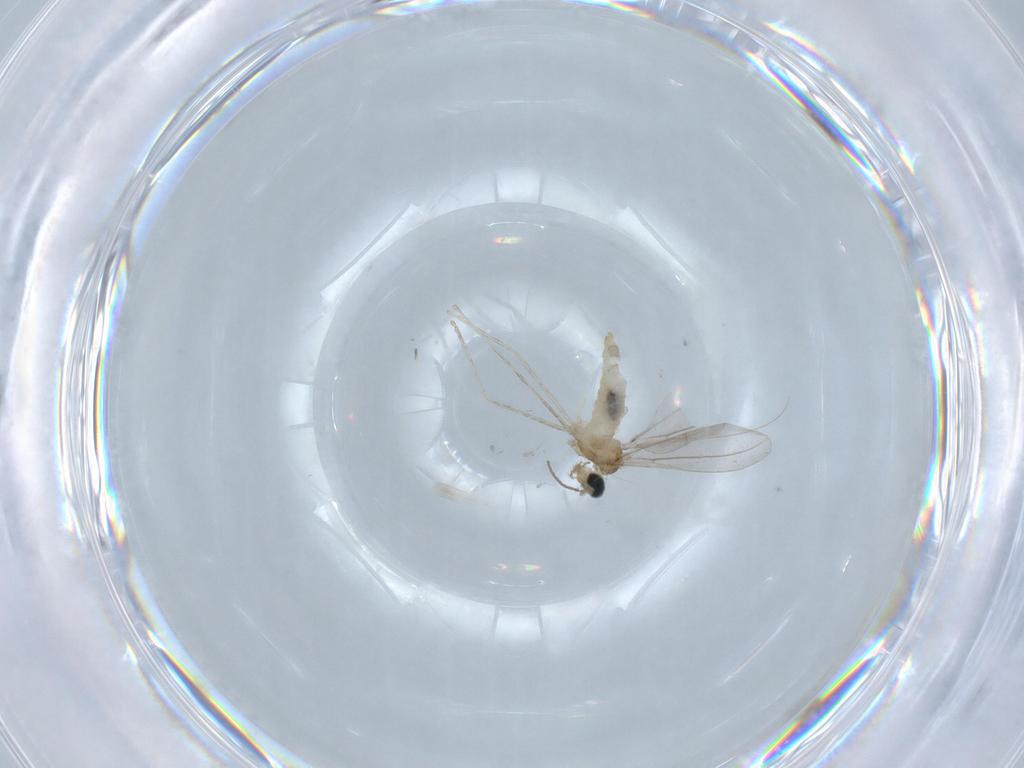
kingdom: Animalia
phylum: Arthropoda
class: Insecta
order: Diptera
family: Cecidomyiidae
